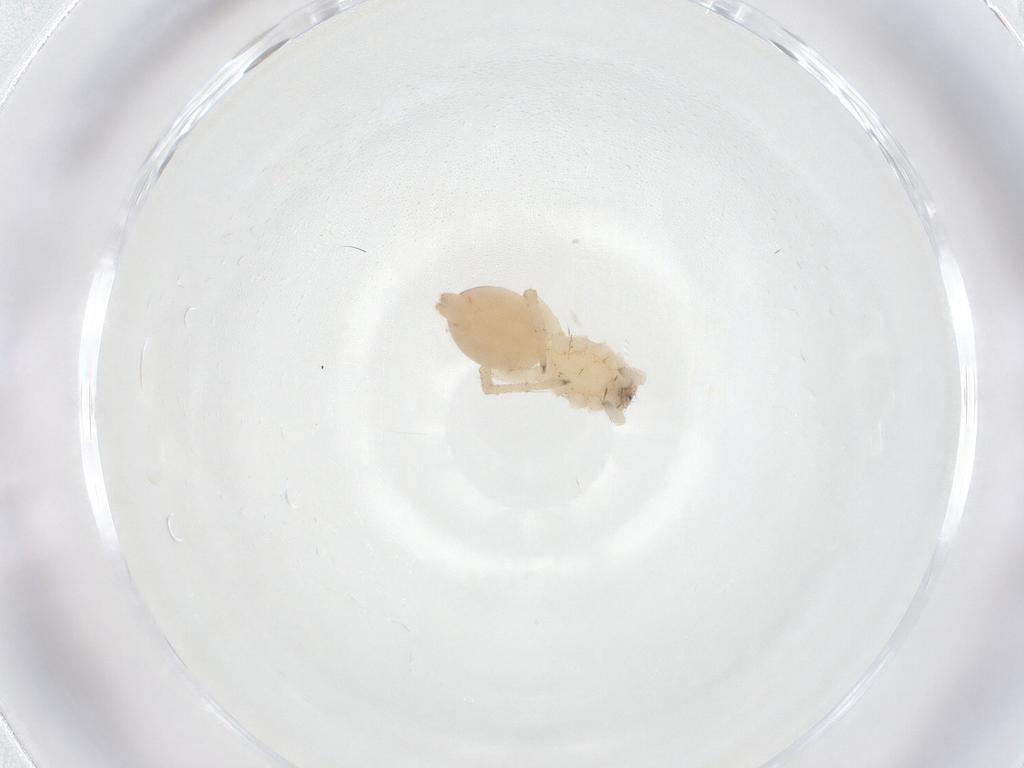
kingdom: Animalia
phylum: Arthropoda
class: Arachnida
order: Araneae
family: Clubionidae
